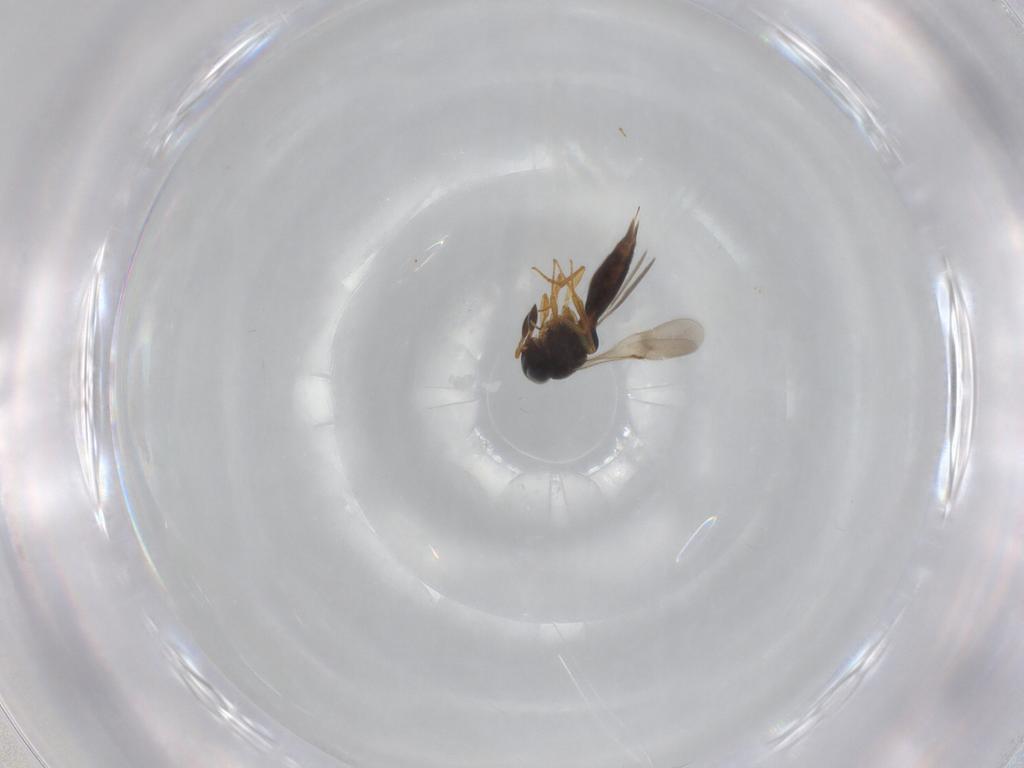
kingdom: Animalia
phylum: Arthropoda
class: Insecta
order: Hymenoptera
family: Scelionidae
